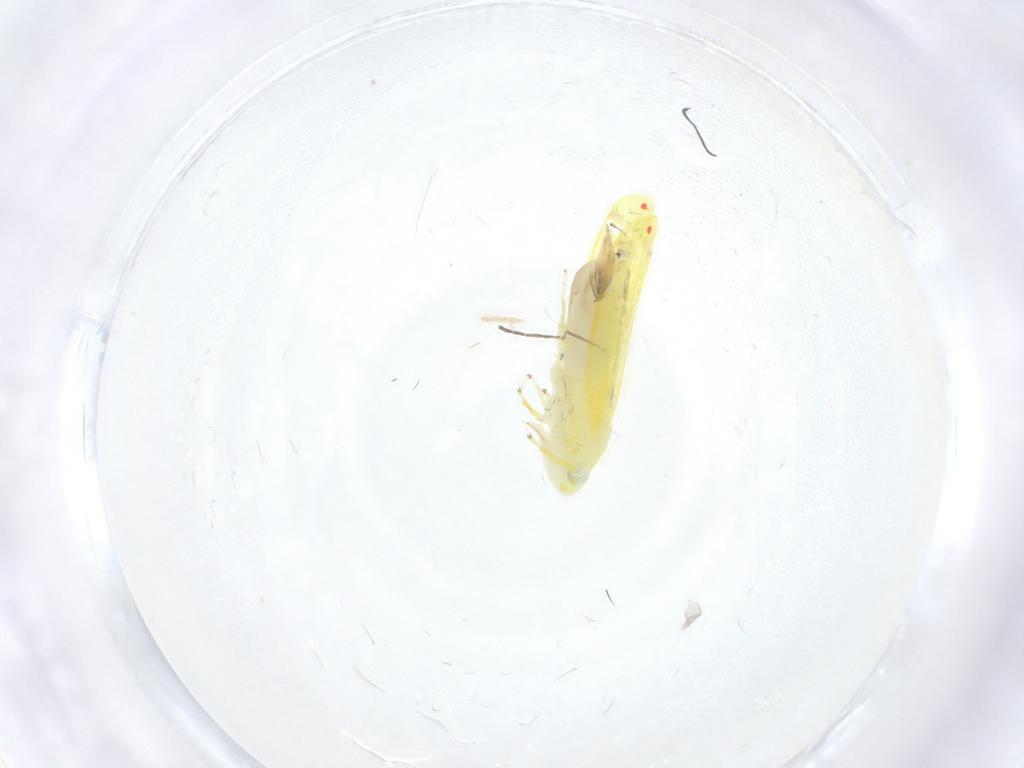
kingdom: Animalia
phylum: Arthropoda
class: Insecta
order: Hemiptera
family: Cicadellidae
